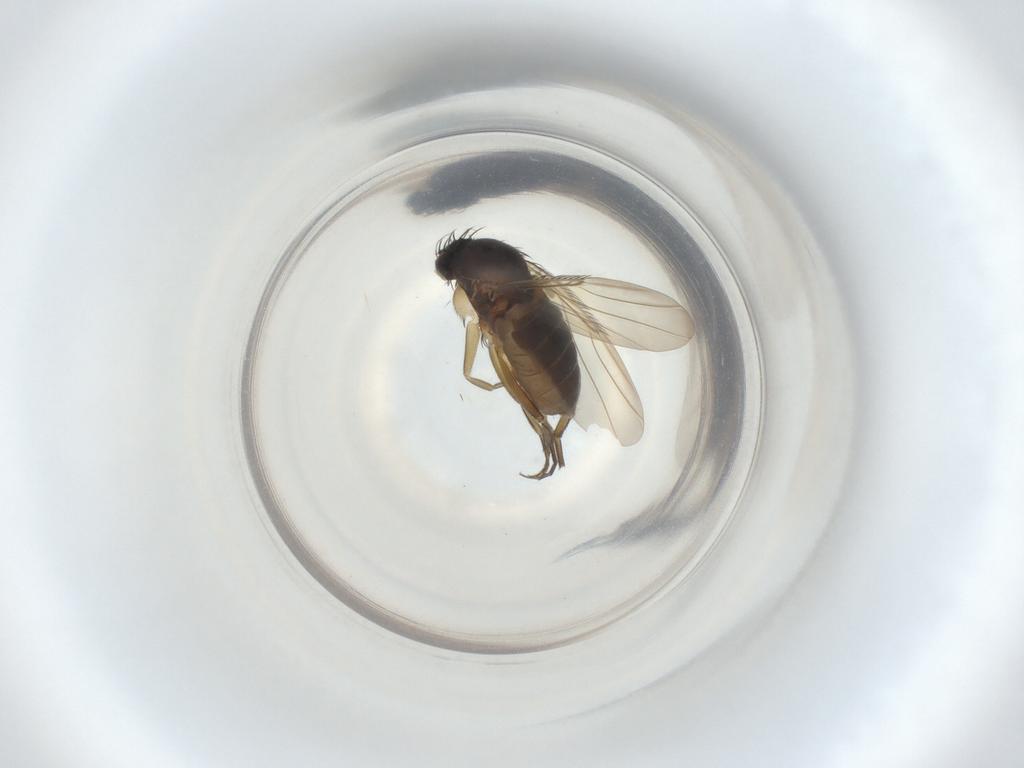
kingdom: Animalia
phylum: Arthropoda
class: Insecta
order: Diptera
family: Phoridae
